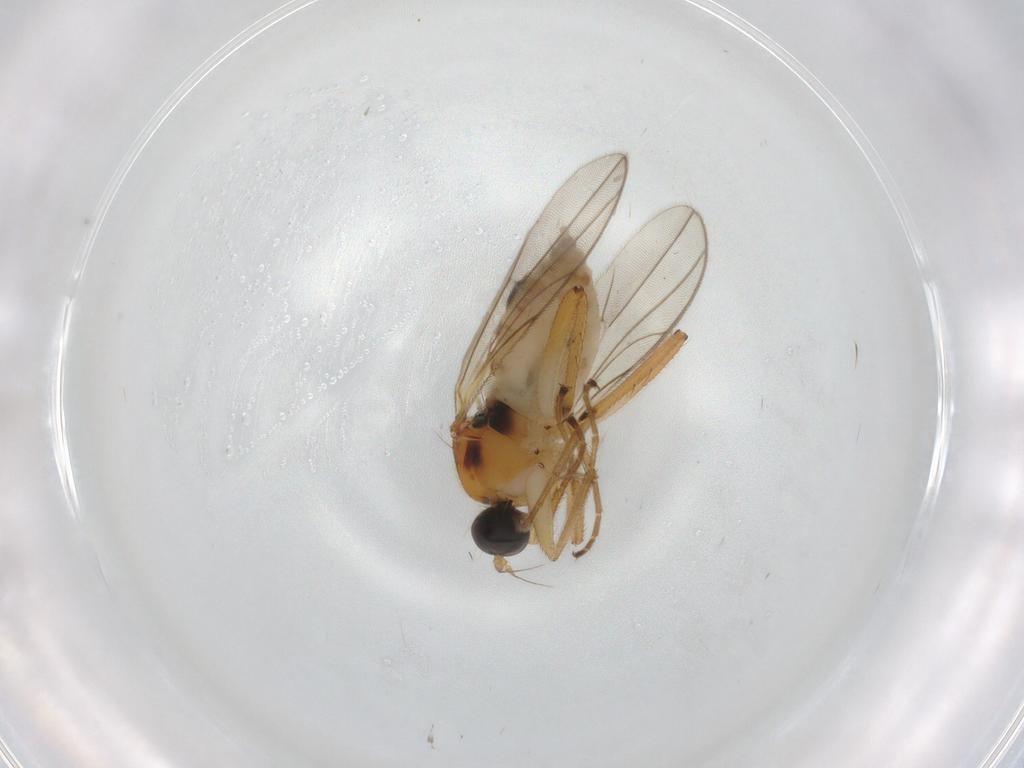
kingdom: Animalia
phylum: Arthropoda
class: Insecta
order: Diptera
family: Hybotidae
